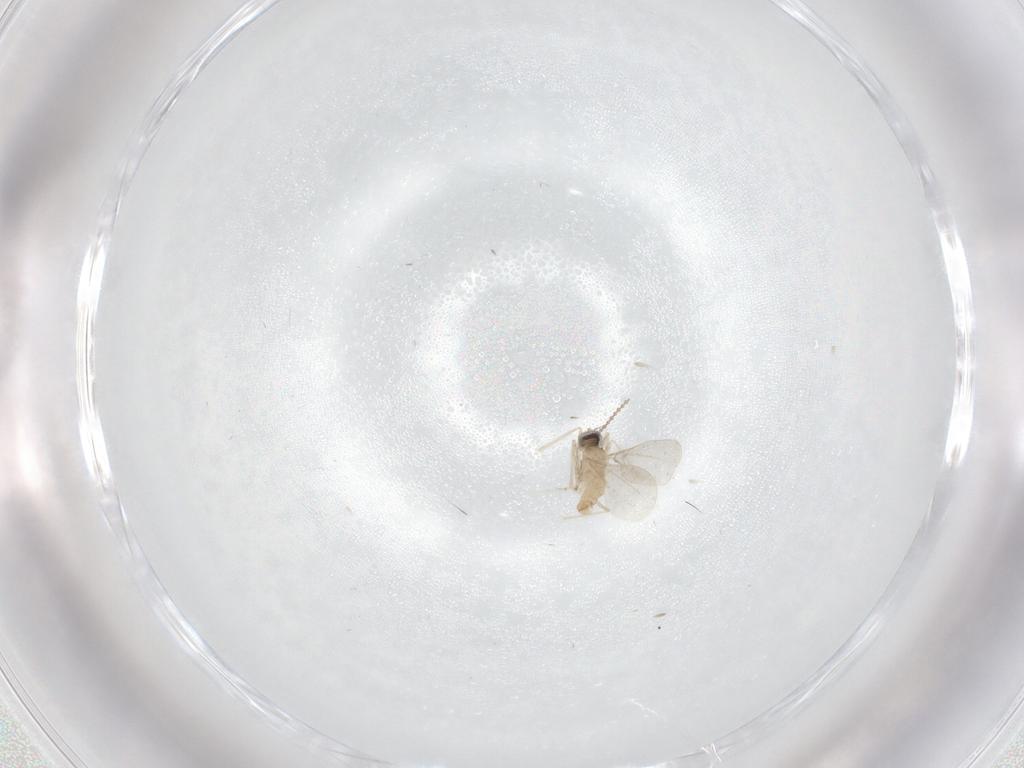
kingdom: Animalia
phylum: Arthropoda
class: Insecta
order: Diptera
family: Cecidomyiidae
